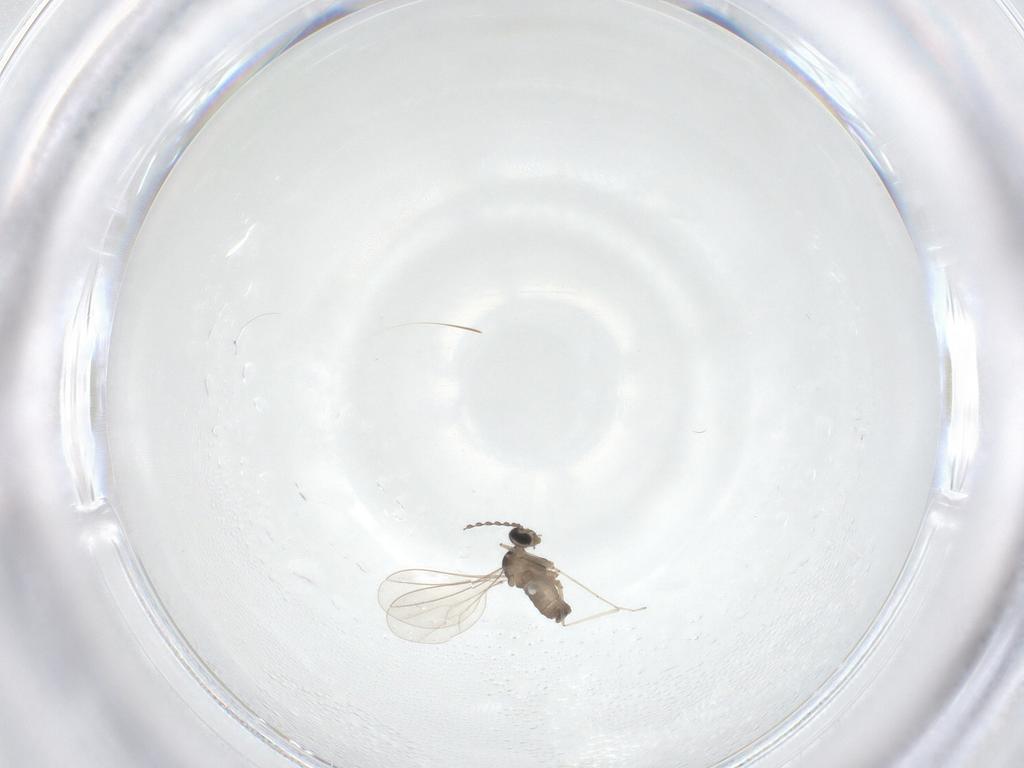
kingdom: Animalia
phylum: Arthropoda
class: Insecta
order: Diptera
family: Cecidomyiidae
